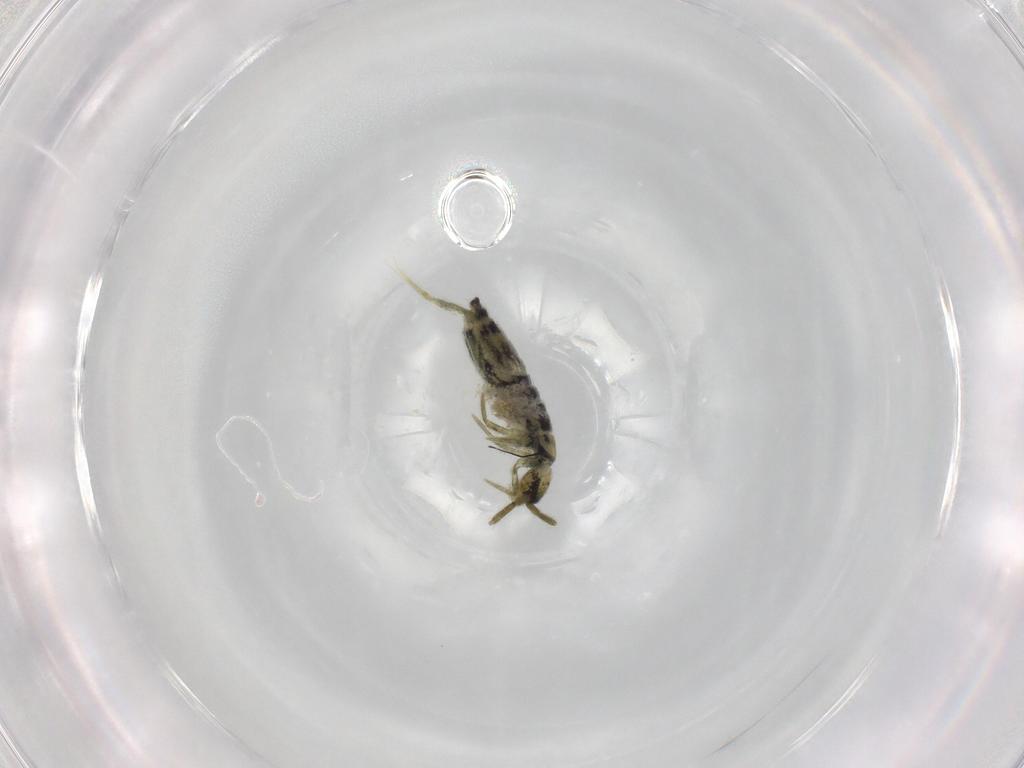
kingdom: Animalia
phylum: Arthropoda
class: Collembola
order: Entomobryomorpha
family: Entomobryidae
